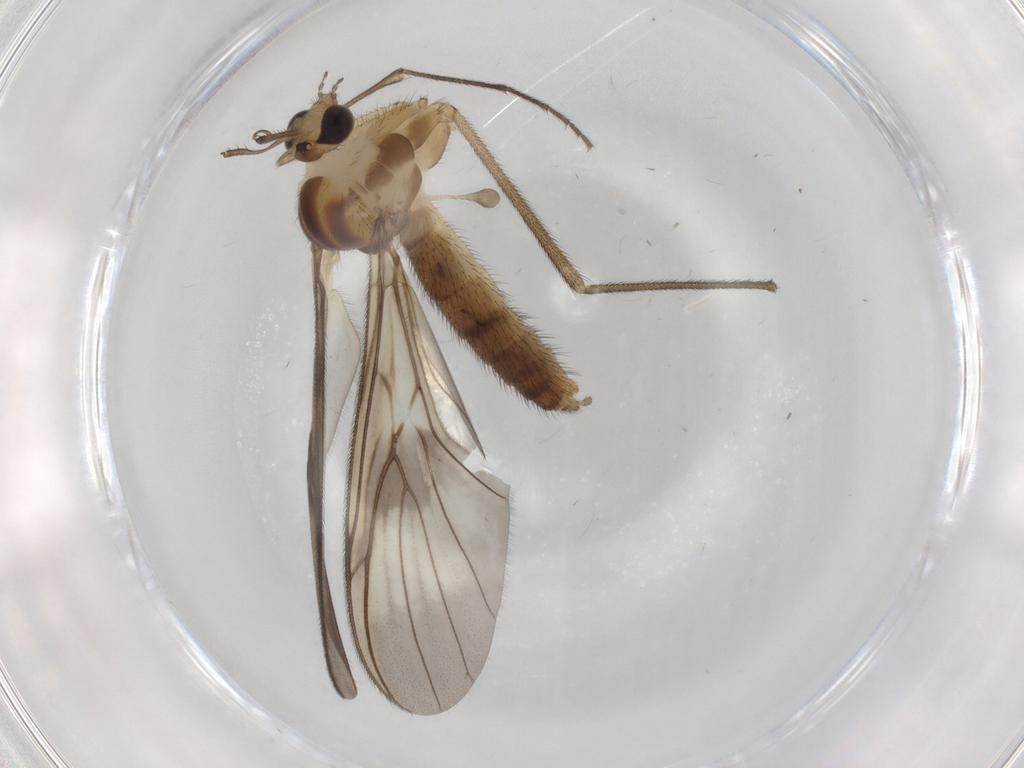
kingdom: Animalia
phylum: Arthropoda
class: Insecta
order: Diptera
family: Keroplatidae
